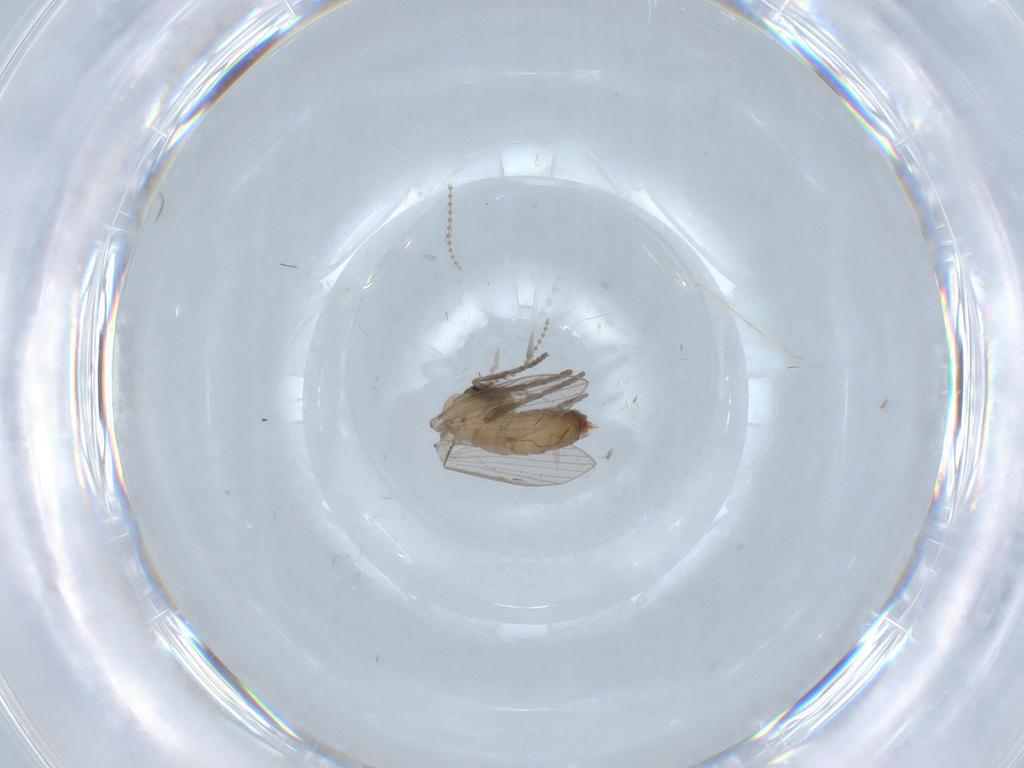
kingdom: Animalia
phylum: Arthropoda
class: Insecta
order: Diptera
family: Psychodidae
